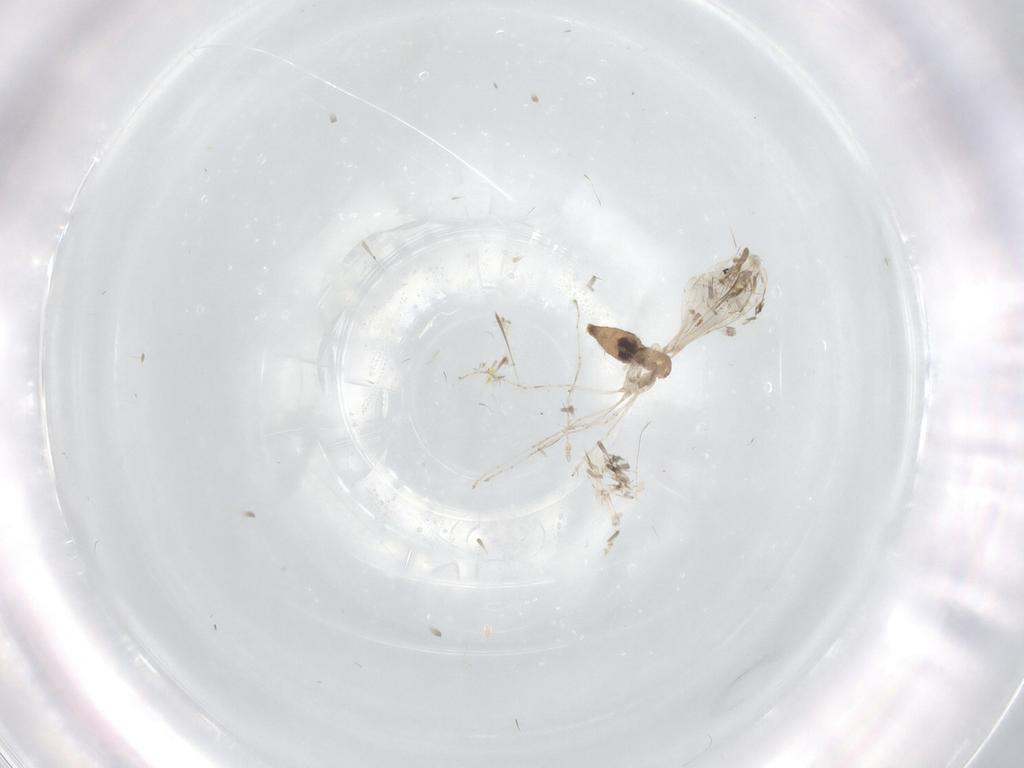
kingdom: Animalia
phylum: Arthropoda
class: Insecta
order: Diptera
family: Cecidomyiidae
